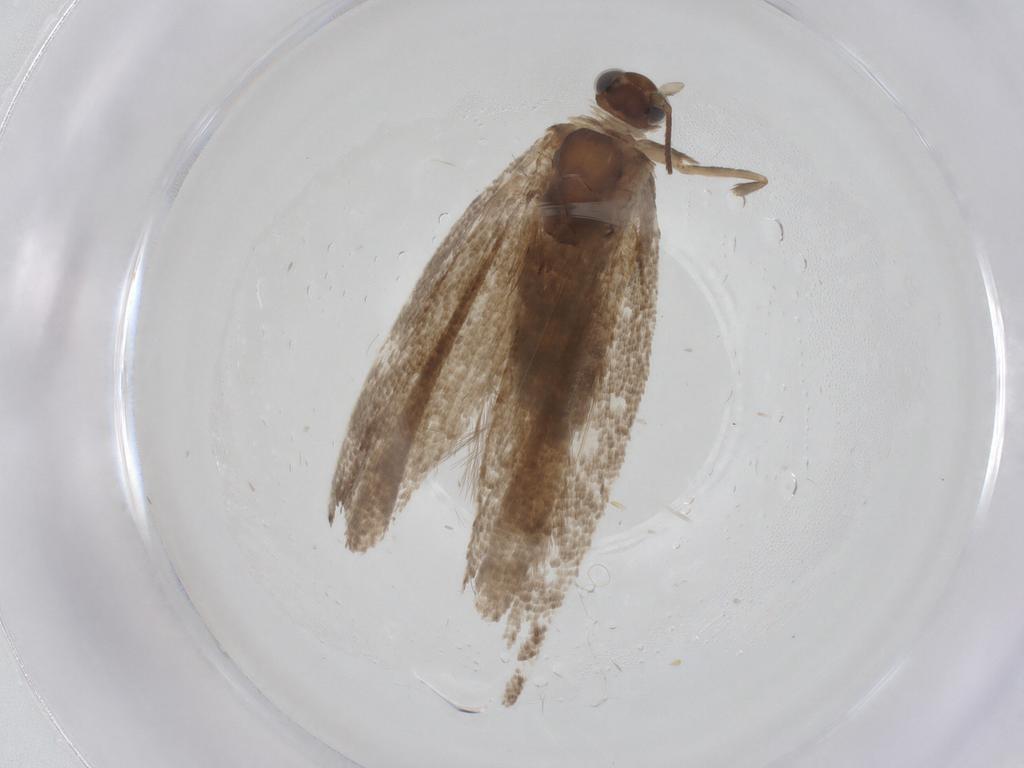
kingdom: Animalia
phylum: Arthropoda
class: Insecta
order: Lepidoptera
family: Tortricidae
